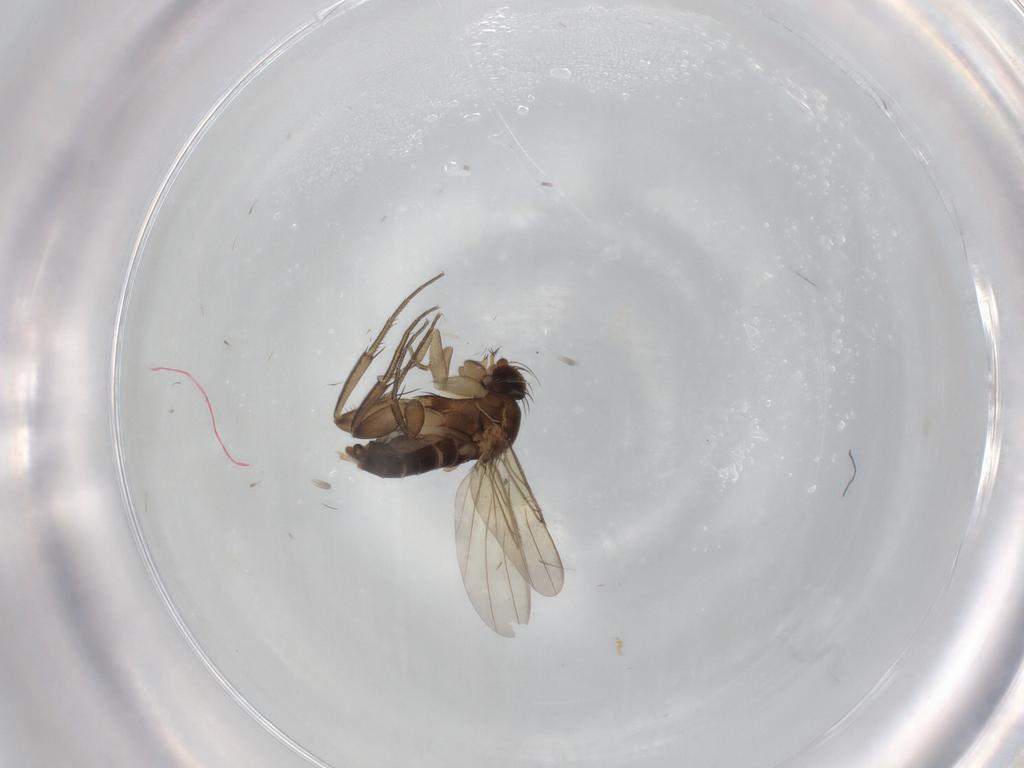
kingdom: Animalia
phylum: Arthropoda
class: Insecta
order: Diptera
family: Phoridae
